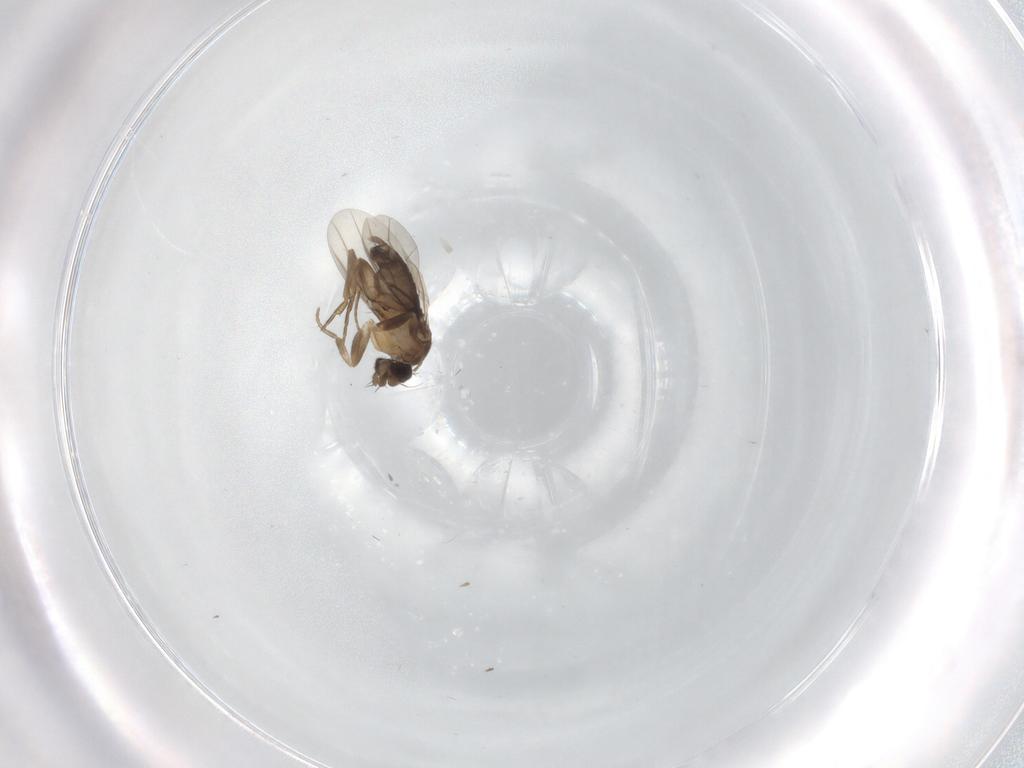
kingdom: Animalia
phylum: Arthropoda
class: Insecta
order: Diptera
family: Phoridae
